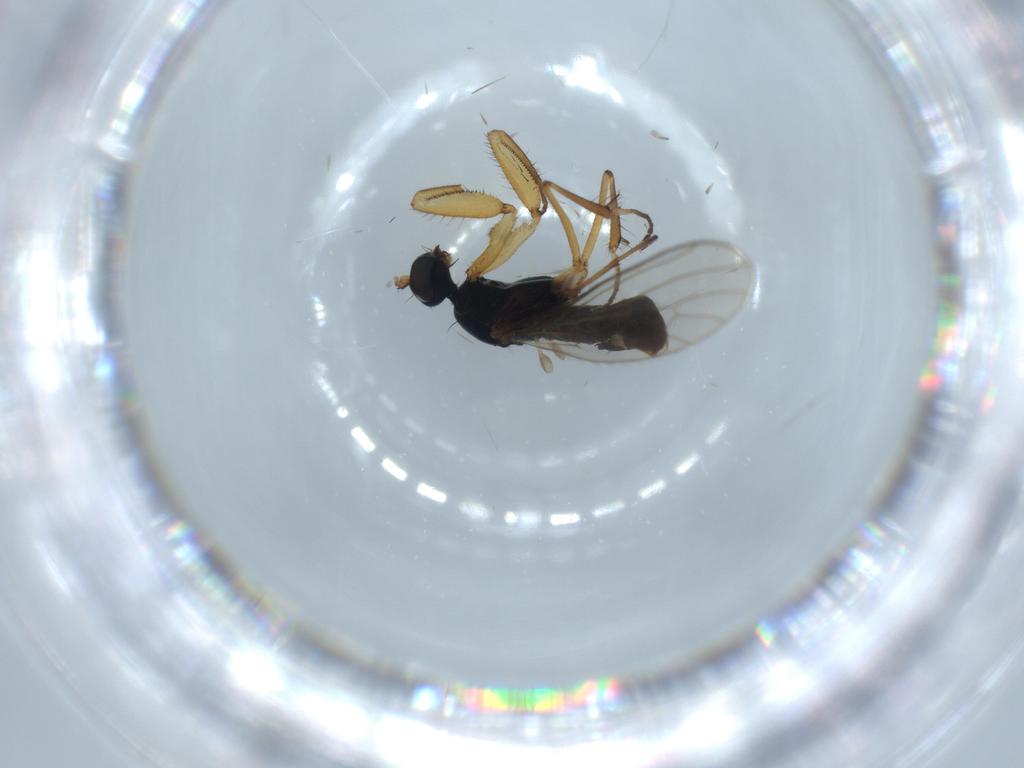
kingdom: Animalia
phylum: Arthropoda
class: Insecta
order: Diptera
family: Empididae
